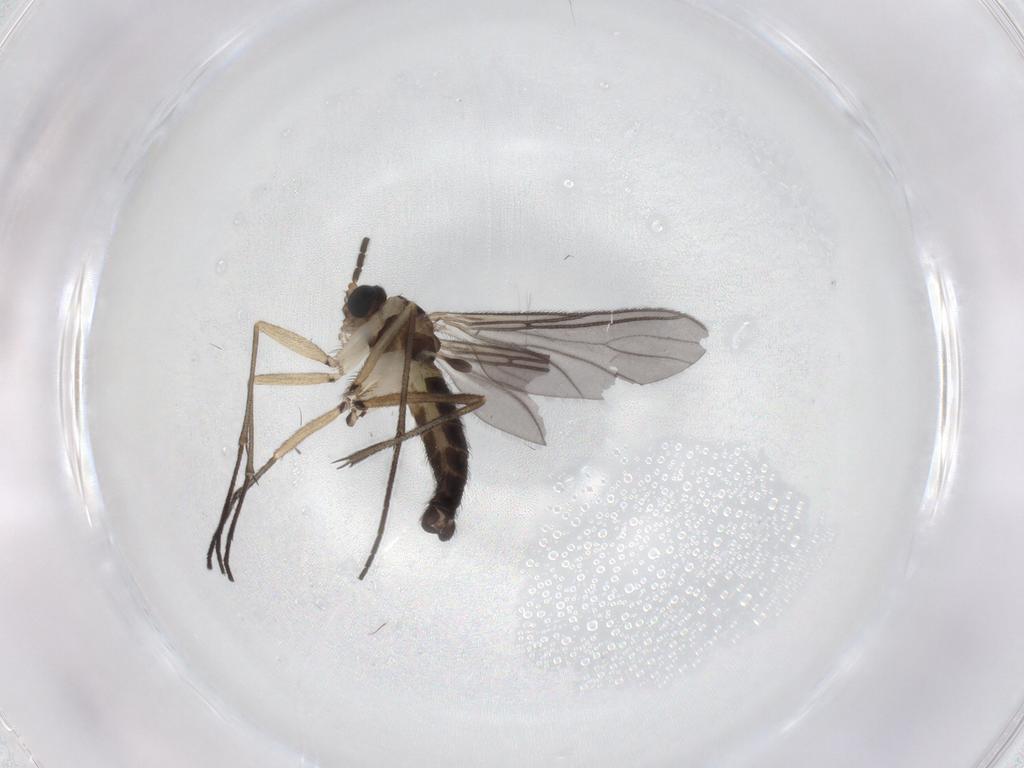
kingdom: Animalia
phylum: Arthropoda
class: Insecta
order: Diptera
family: Sciaridae
